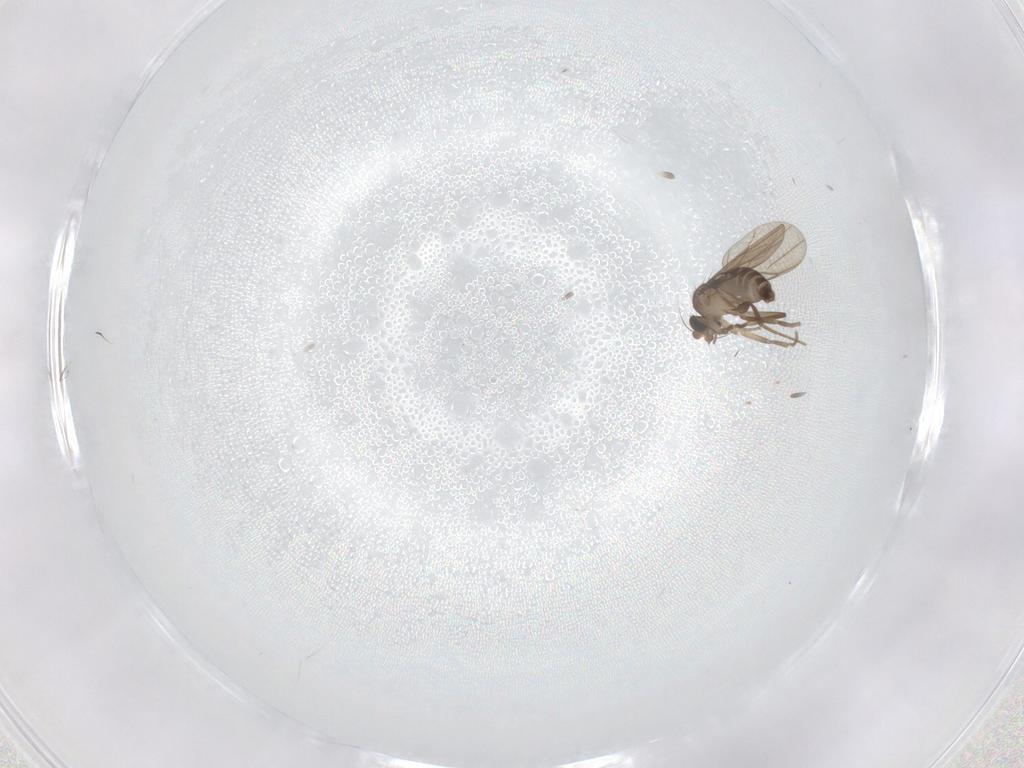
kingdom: Animalia
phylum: Arthropoda
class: Insecta
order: Diptera
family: Phoridae
